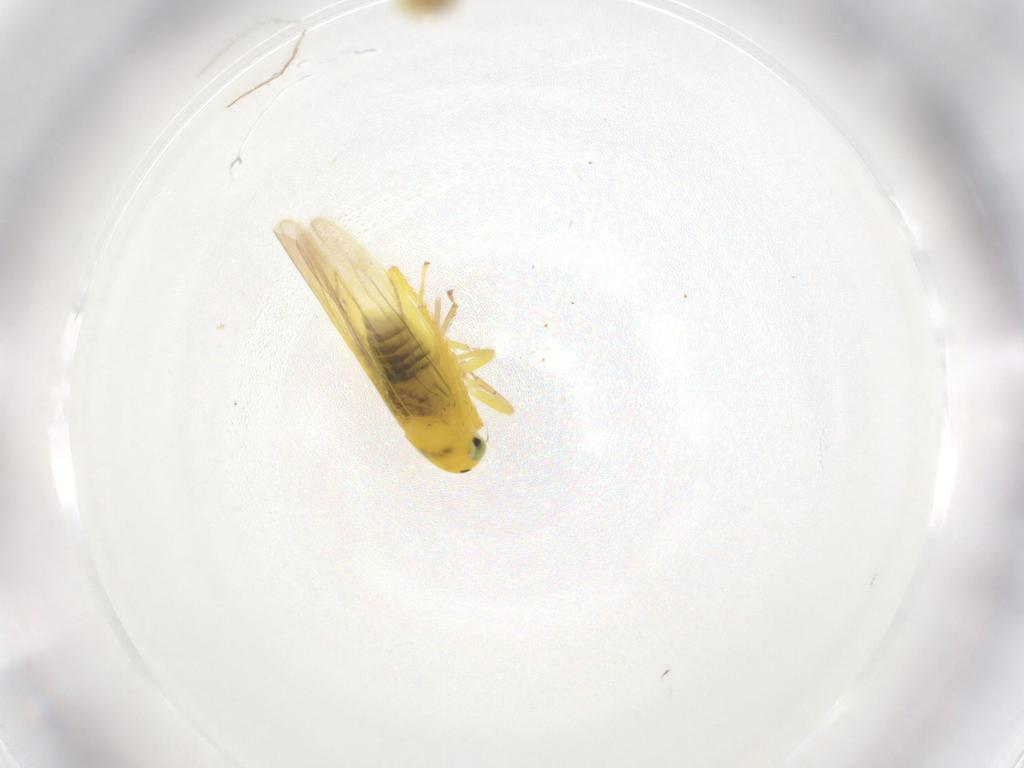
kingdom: Animalia
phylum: Arthropoda
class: Insecta
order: Hemiptera
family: Cicadellidae
